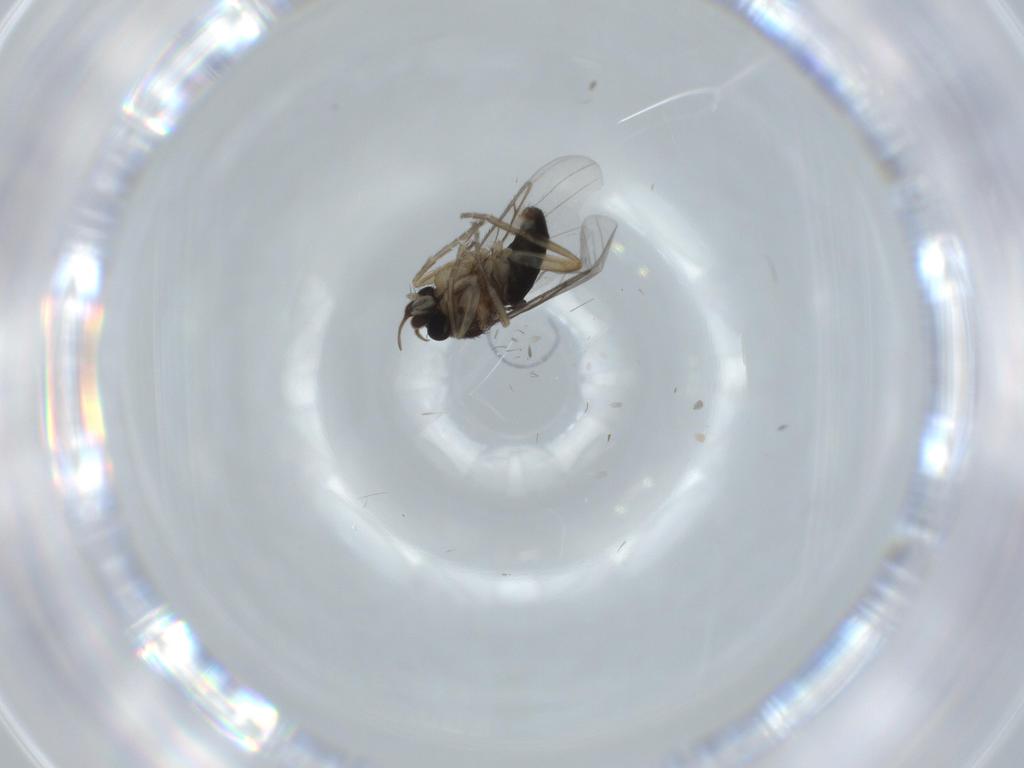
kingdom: Animalia
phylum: Arthropoda
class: Insecta
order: Diptera
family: Phoridae
